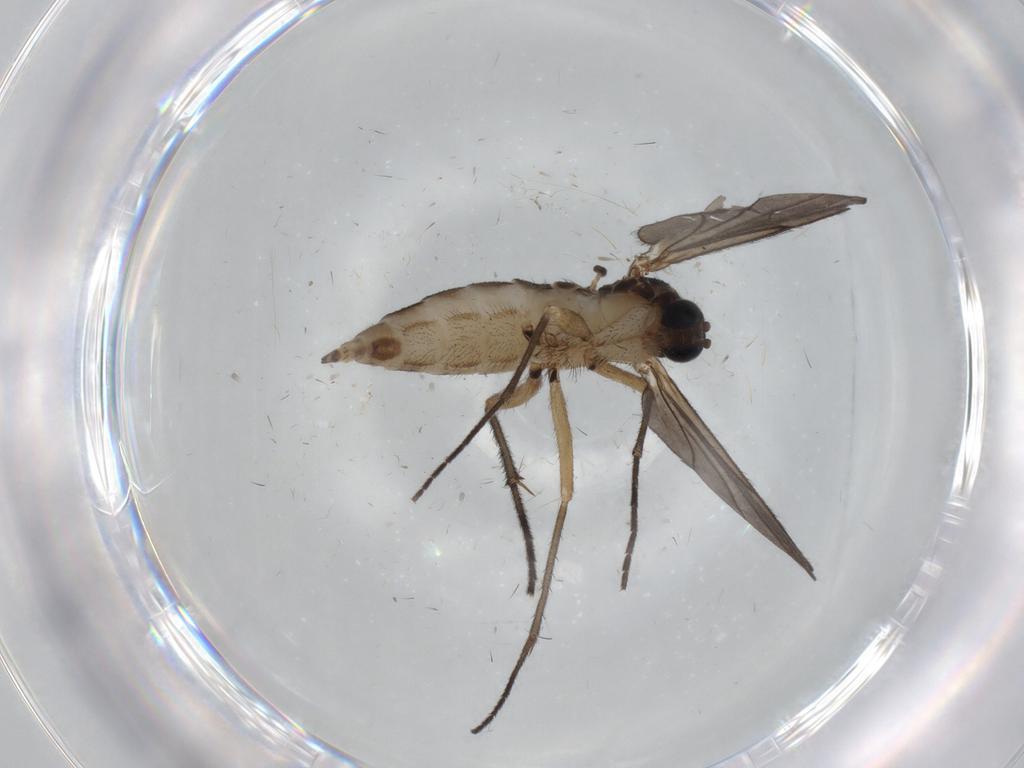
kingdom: Animalia
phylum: Arthropoda
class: Insecta
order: Diptera
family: Sciaridae
